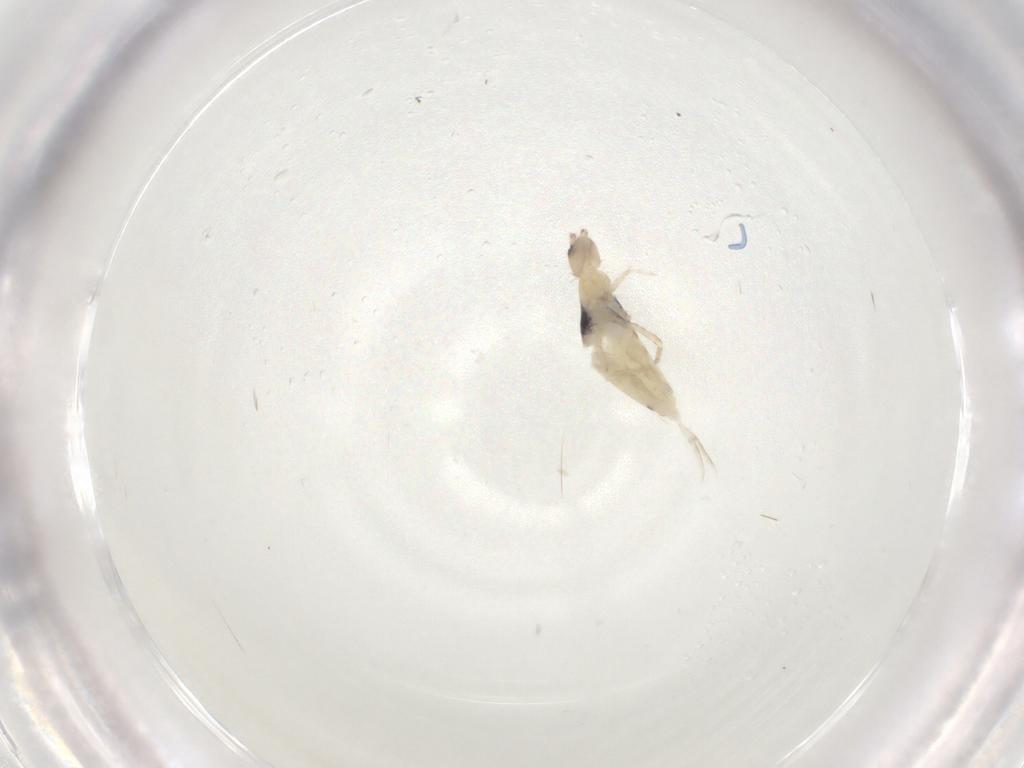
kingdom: Animalia
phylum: Arthropoda
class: Collembola
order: Entomobryomorpha
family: Entomobryidae
